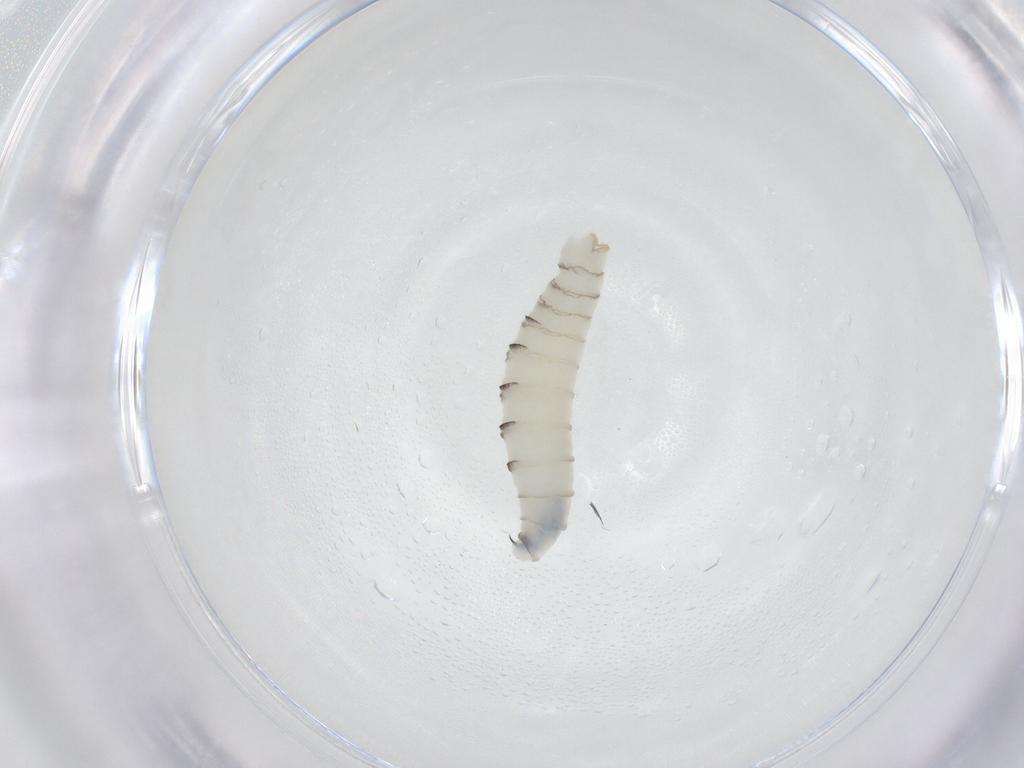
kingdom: Animalia
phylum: Arthropoda
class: Insecta
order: Diptera
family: Sarcophagidae
